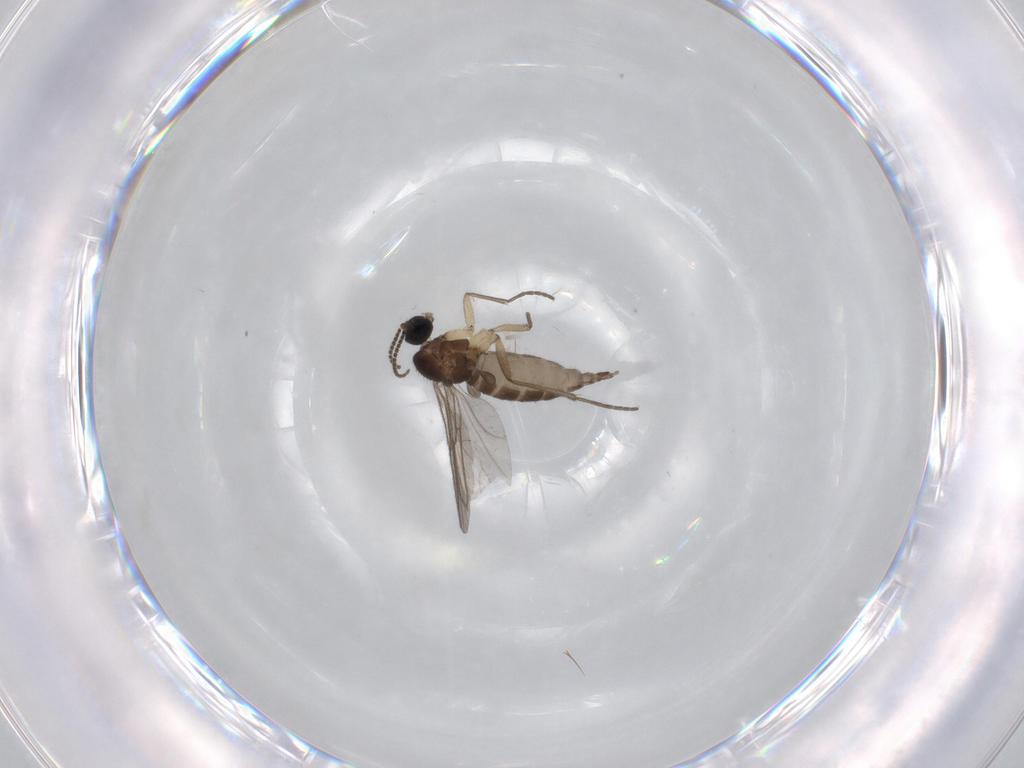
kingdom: Animalia
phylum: Arthropoda
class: Insecta
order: Diptera
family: Sciaridae
